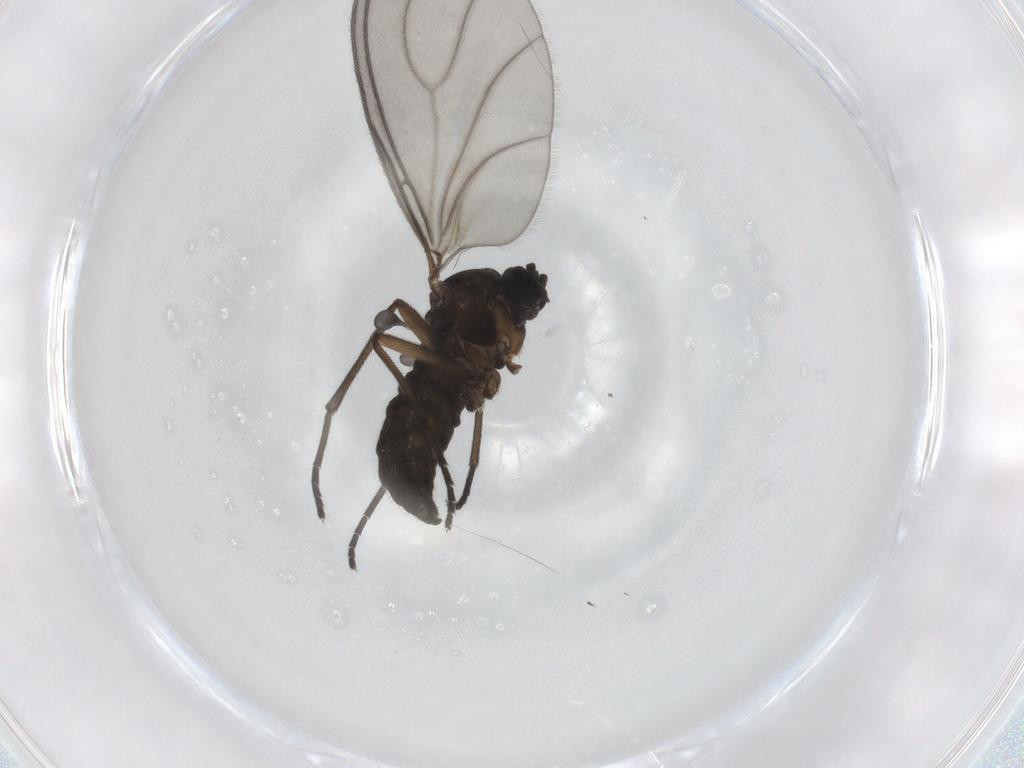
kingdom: Animalia
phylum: Arthropoda
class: Insecta
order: Diptera
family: Sciaridae
